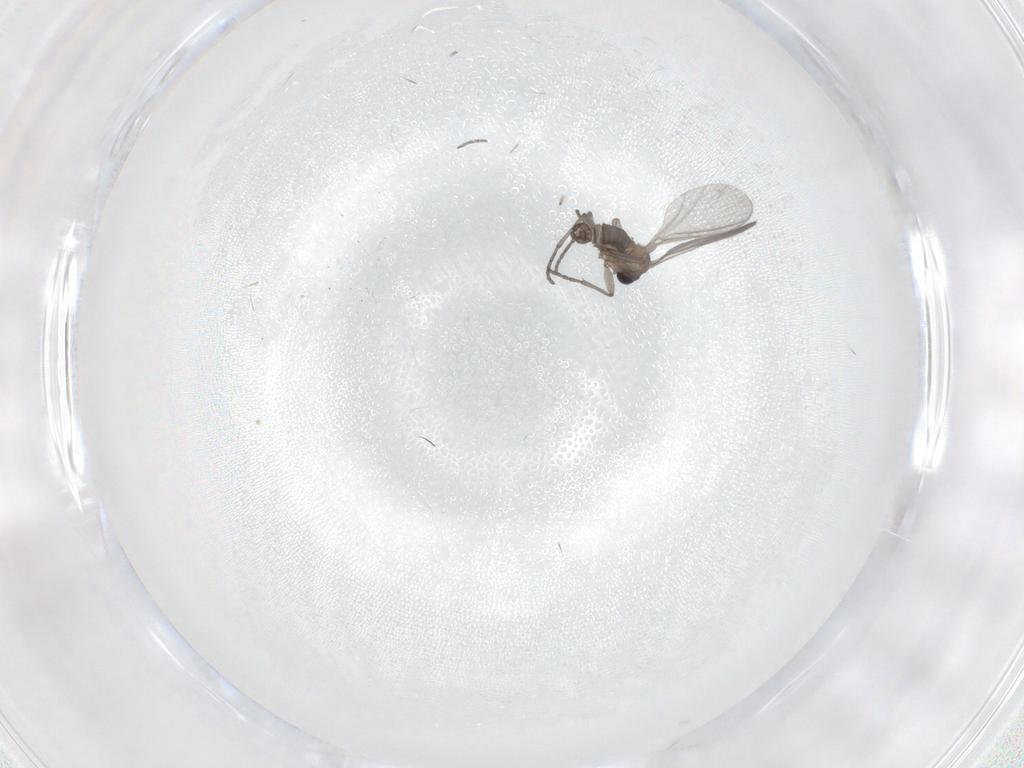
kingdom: Animalia
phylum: Arthropoda
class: Insecta
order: Diptera
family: Sciaridae
